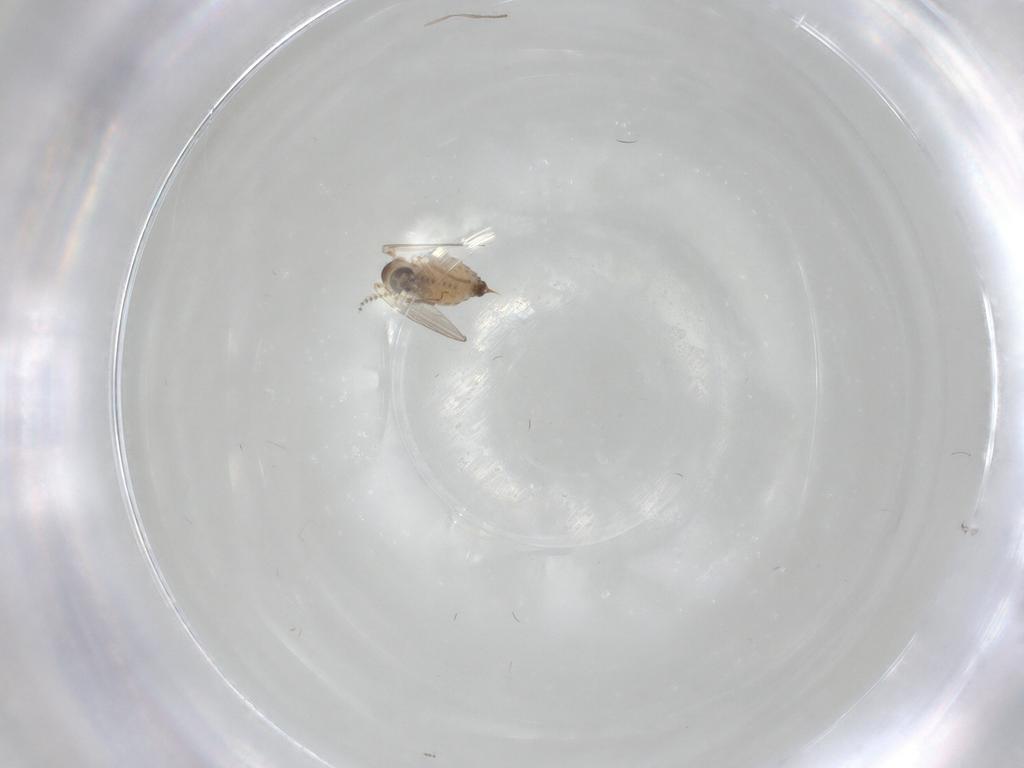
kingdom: Animalia
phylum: Arthropoda
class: Insecta
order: Diptera
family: Psychodidae
